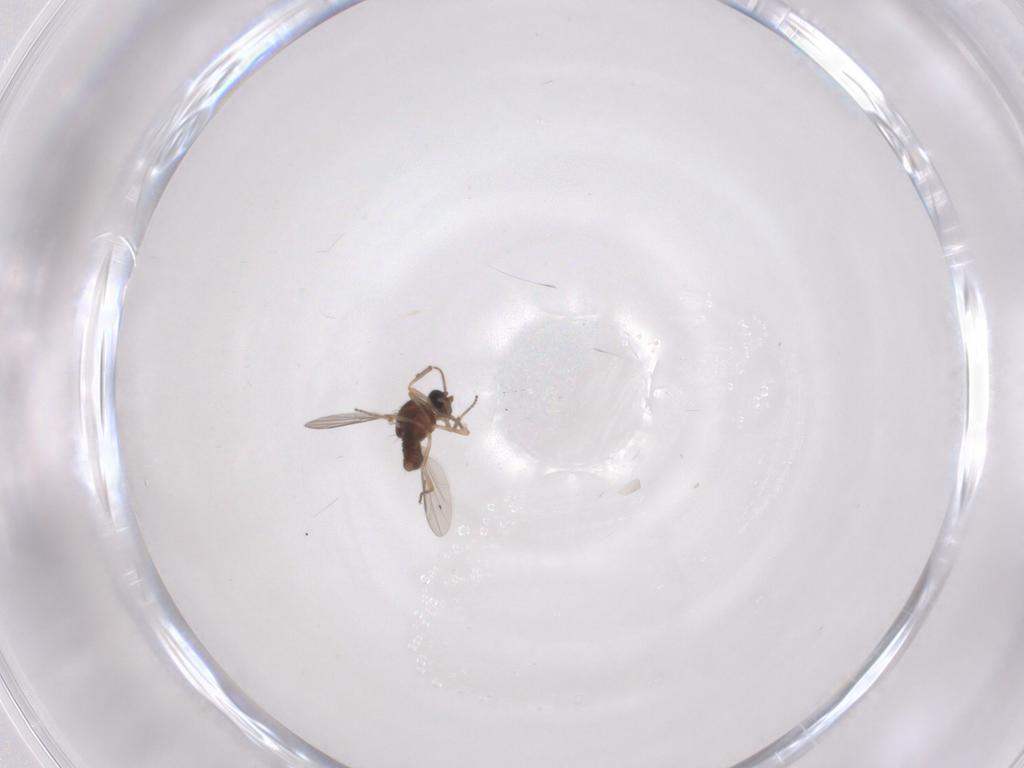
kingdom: Animalia
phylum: Arthropoda
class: Insecta
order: Diptera
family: Ceratopogonidae
